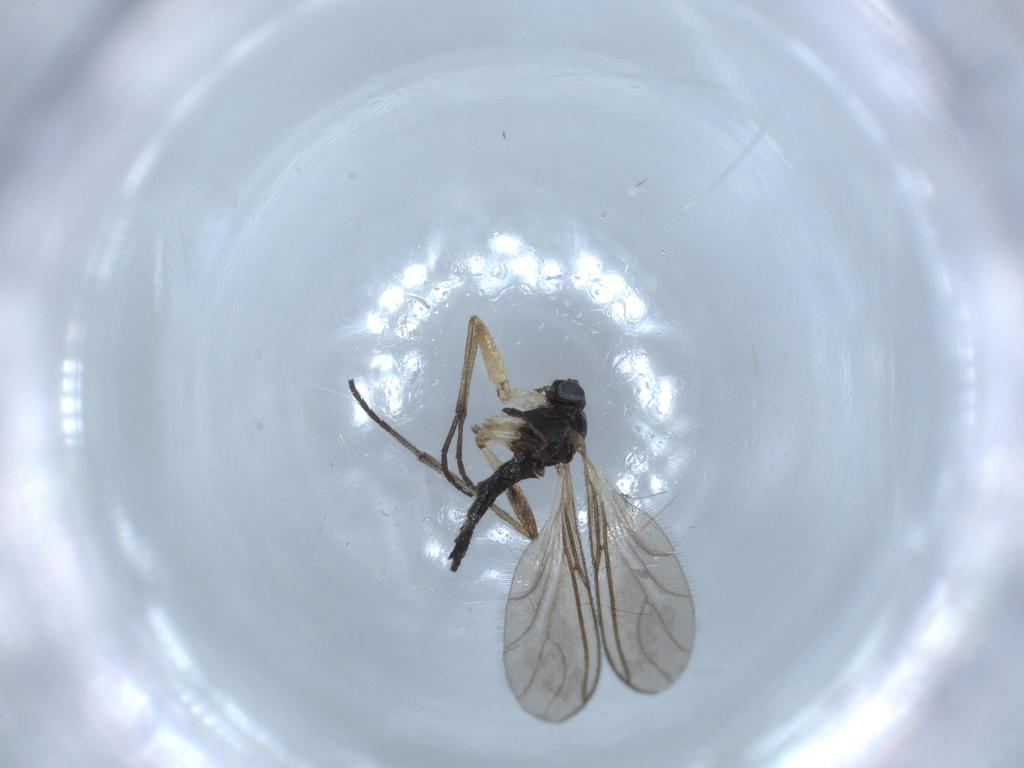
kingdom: Animalia
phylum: Arthropoda
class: Insecta
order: Diptera
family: Sciaridae
